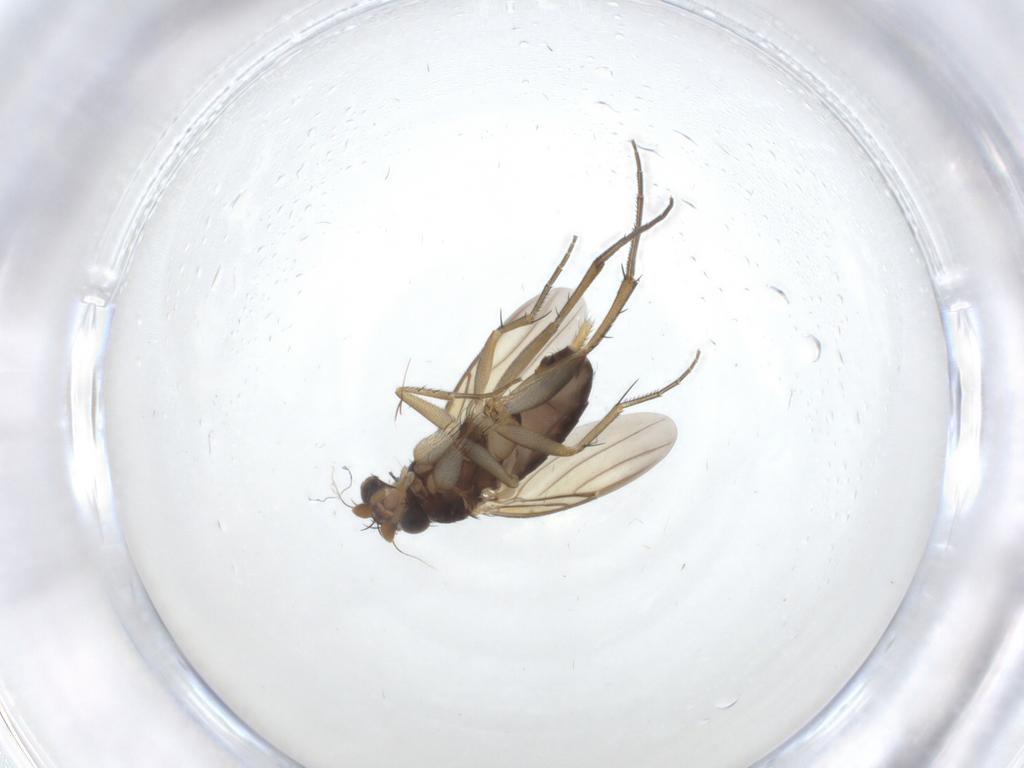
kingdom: Animalia
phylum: Arthropoda
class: Insecta
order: Diptera
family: Phoridae
